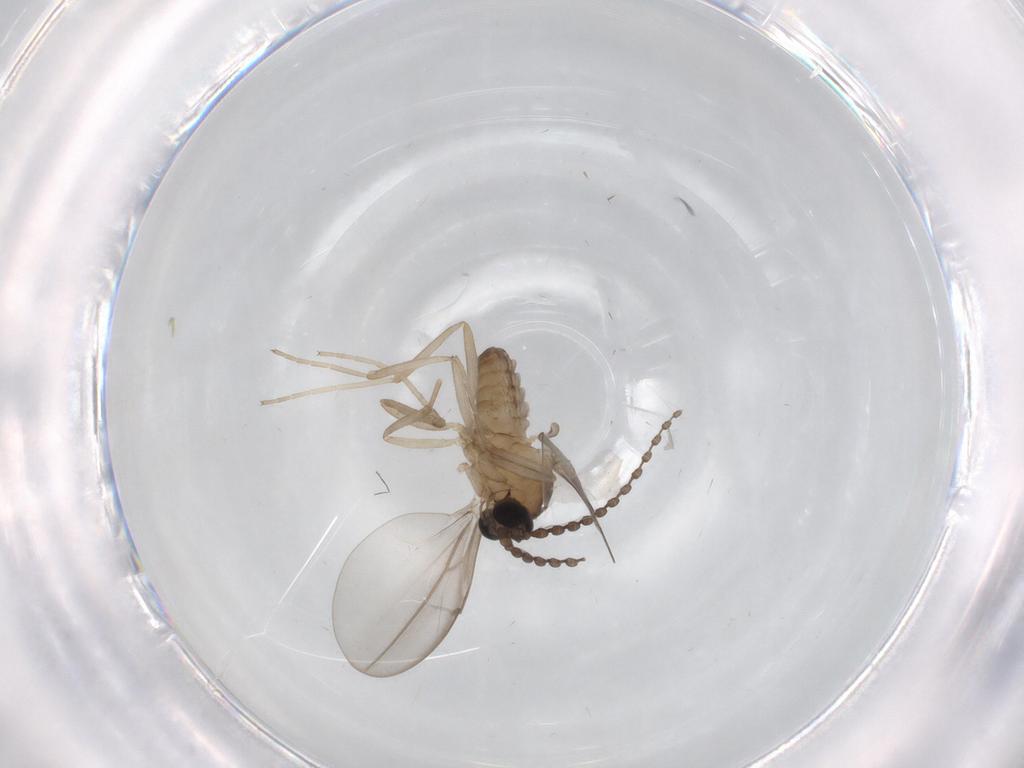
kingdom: Animalia
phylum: Arthropoda
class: Insecta
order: Diptera
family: Cecidomyiidae
